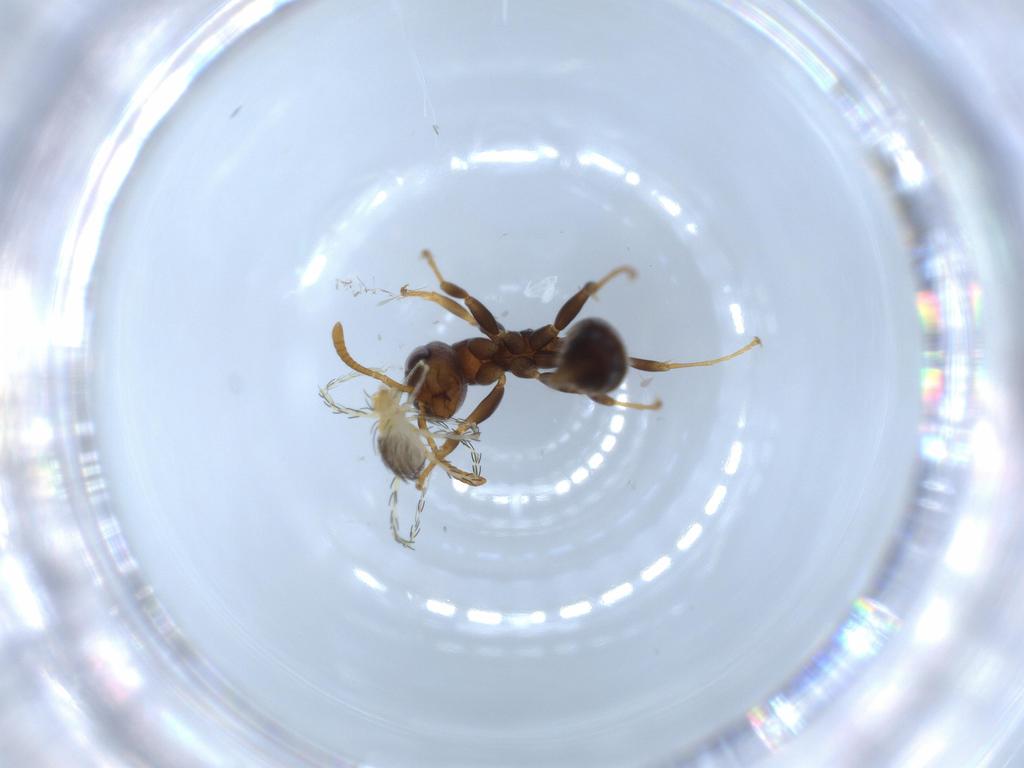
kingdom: Animalia
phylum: Arthropoda
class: Arachnida
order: Trombidiformes
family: Erythraeidae
